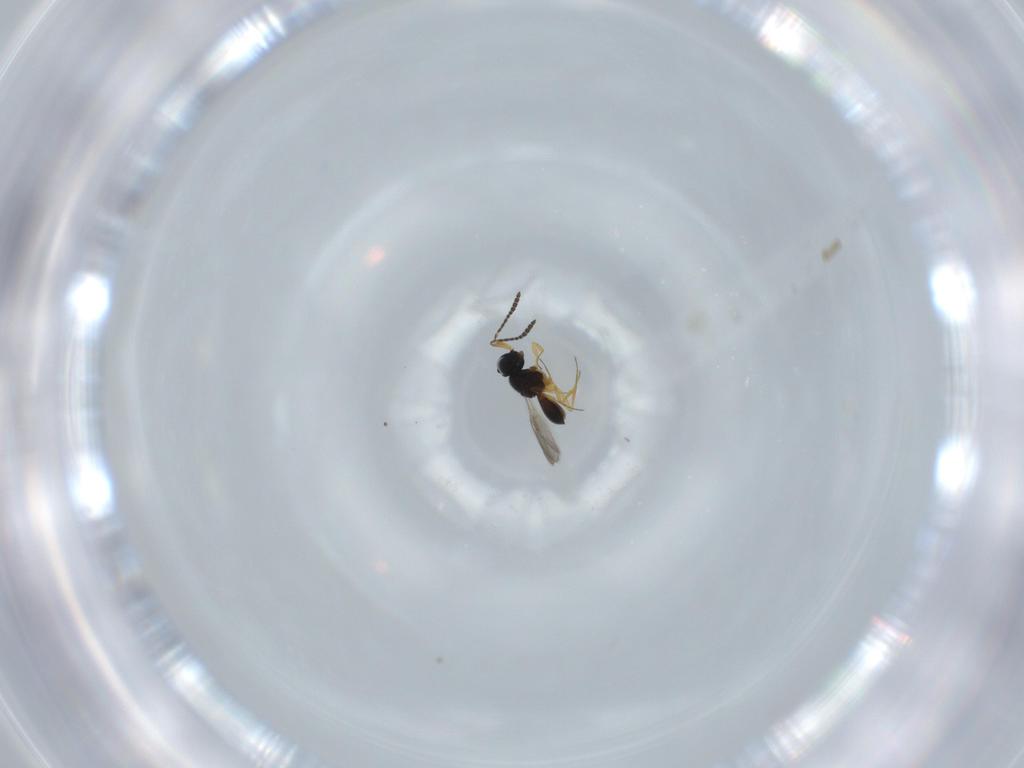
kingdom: Animalia
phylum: Arthropoda
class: Insecta
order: Hymenoptera
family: Scelionidae
